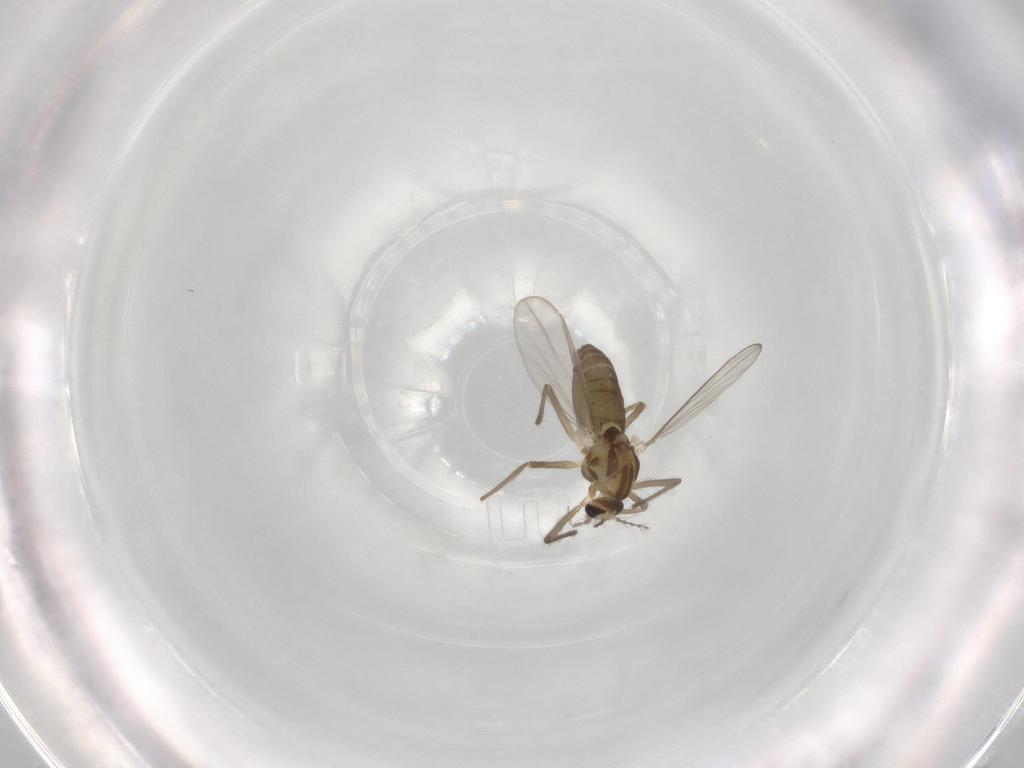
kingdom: Animalia
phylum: Arthropoda
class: Insecta
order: Diptera
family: Chironomidae
